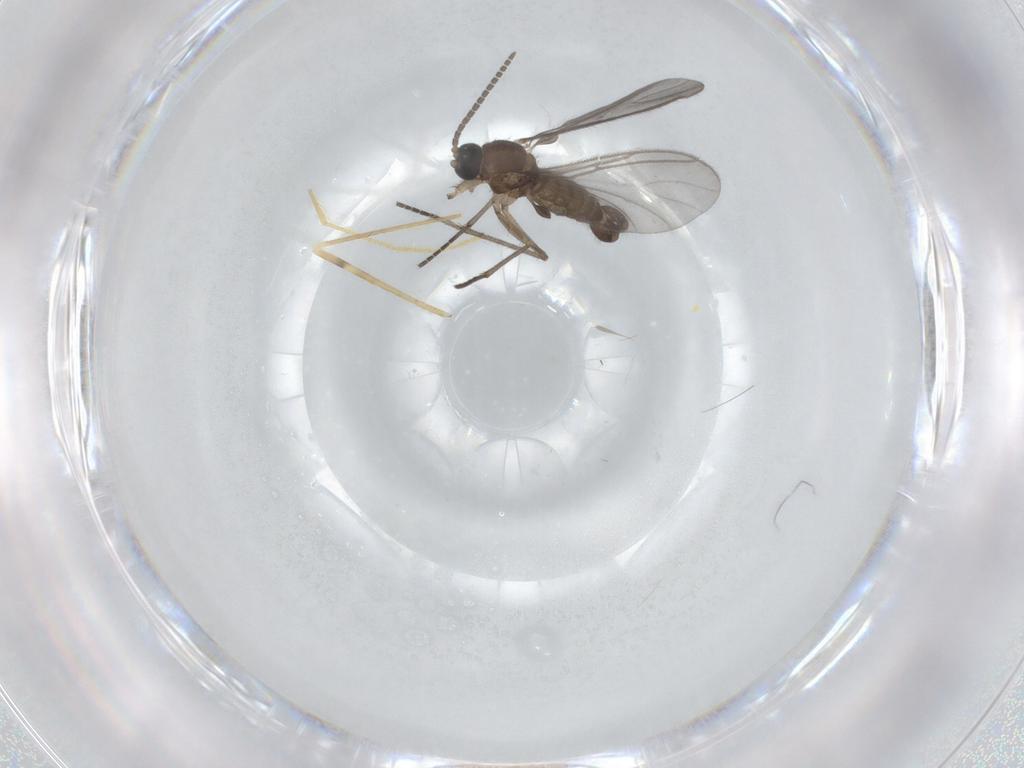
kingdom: Animalia
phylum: Arthropoda
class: Insecta
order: Diptera
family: Sciaridae
